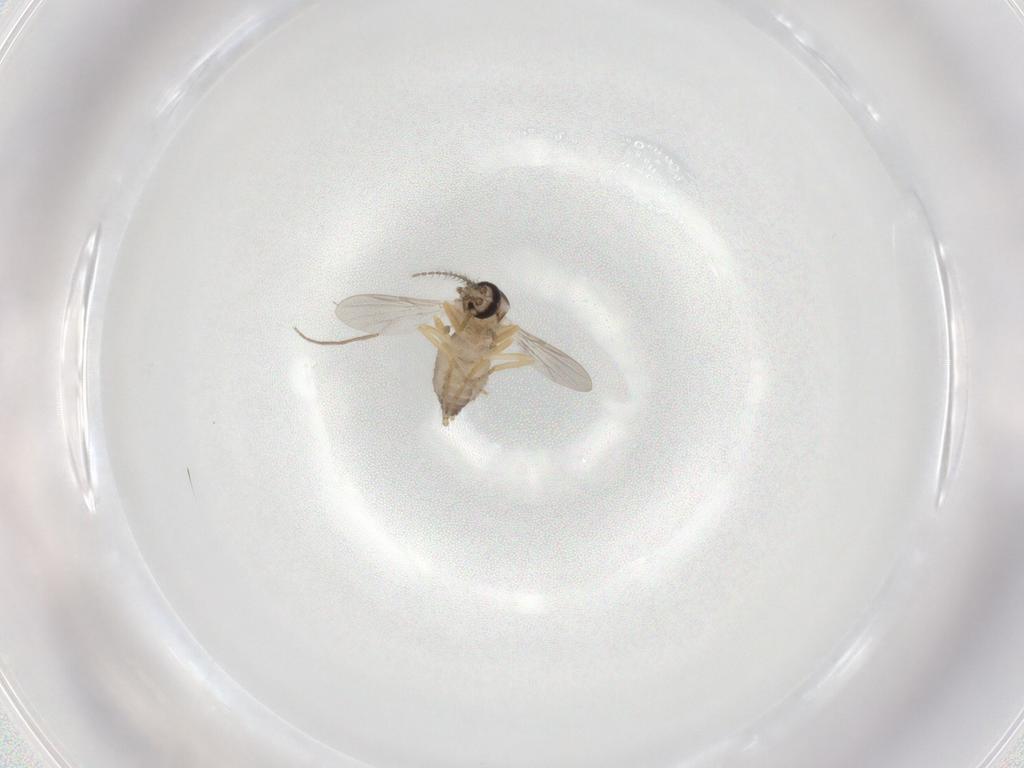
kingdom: Animalia
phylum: Arthropoda
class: Insecta
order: Diptera
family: Ceratopogonidae
